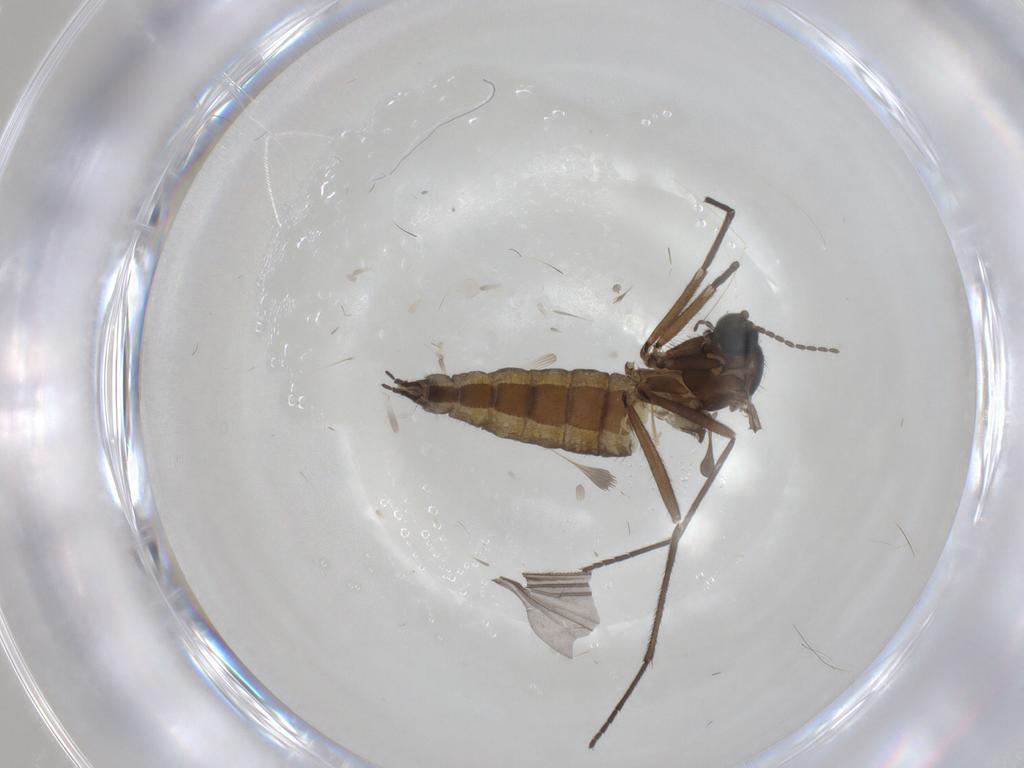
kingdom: Animalia
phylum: Arthropoda
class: Insecta
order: Diptera
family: Sciaridae
